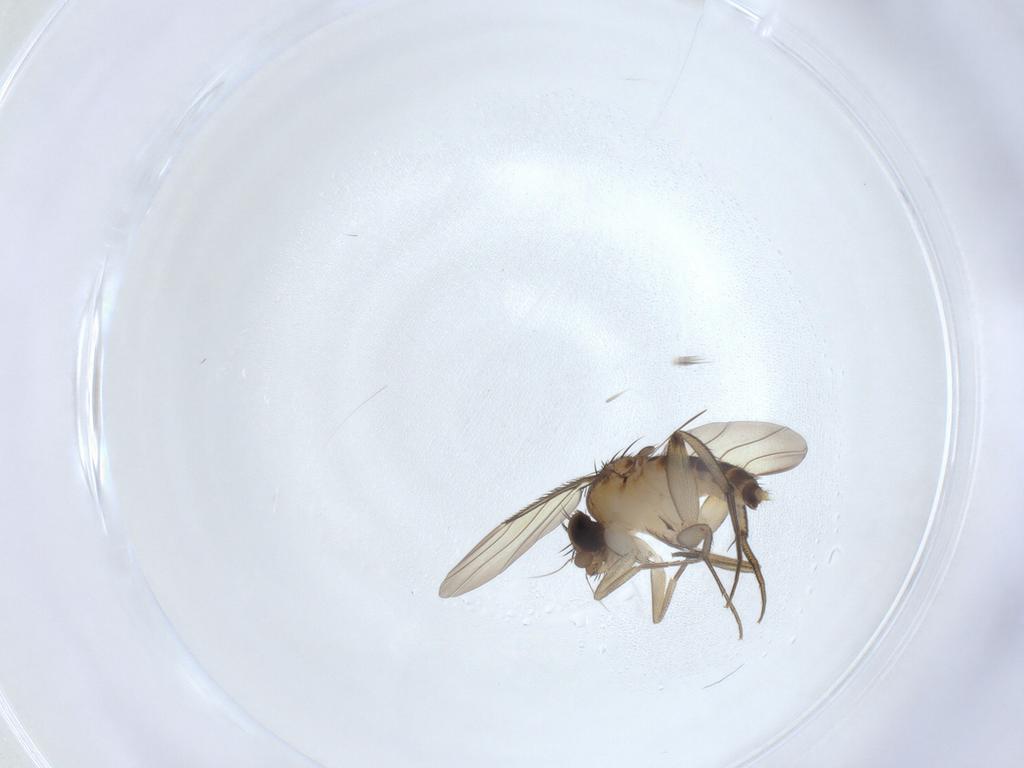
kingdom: Animalia
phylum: Arthropoda
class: Insecta
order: Diptera
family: Phoridae
